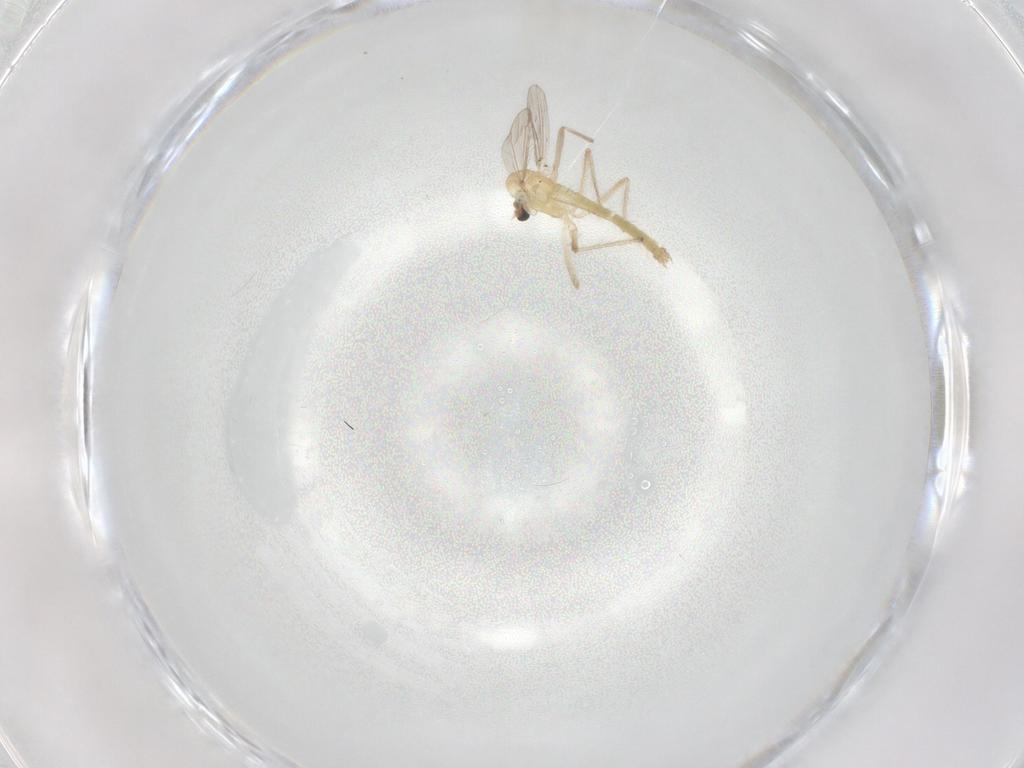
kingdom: Animalia
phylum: Arthropoda
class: Insecta
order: Diptera
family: Chironomidae
